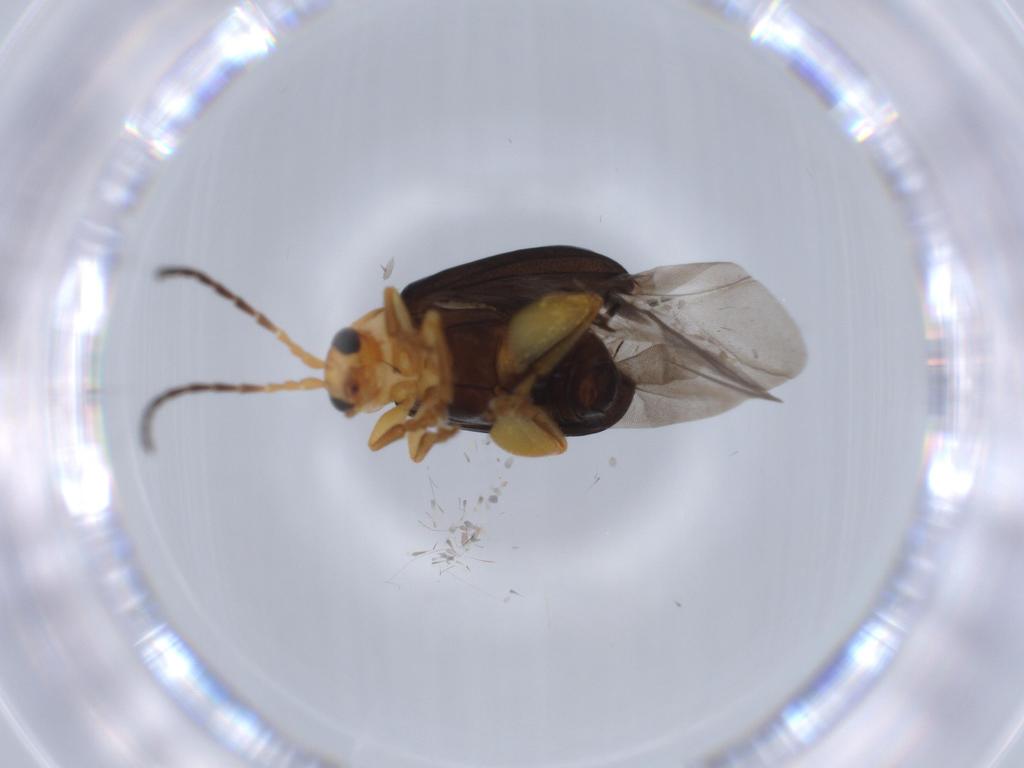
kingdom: Animalia
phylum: Arthropoda
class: Insecta
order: Coleoptera
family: Chrysomelidae
